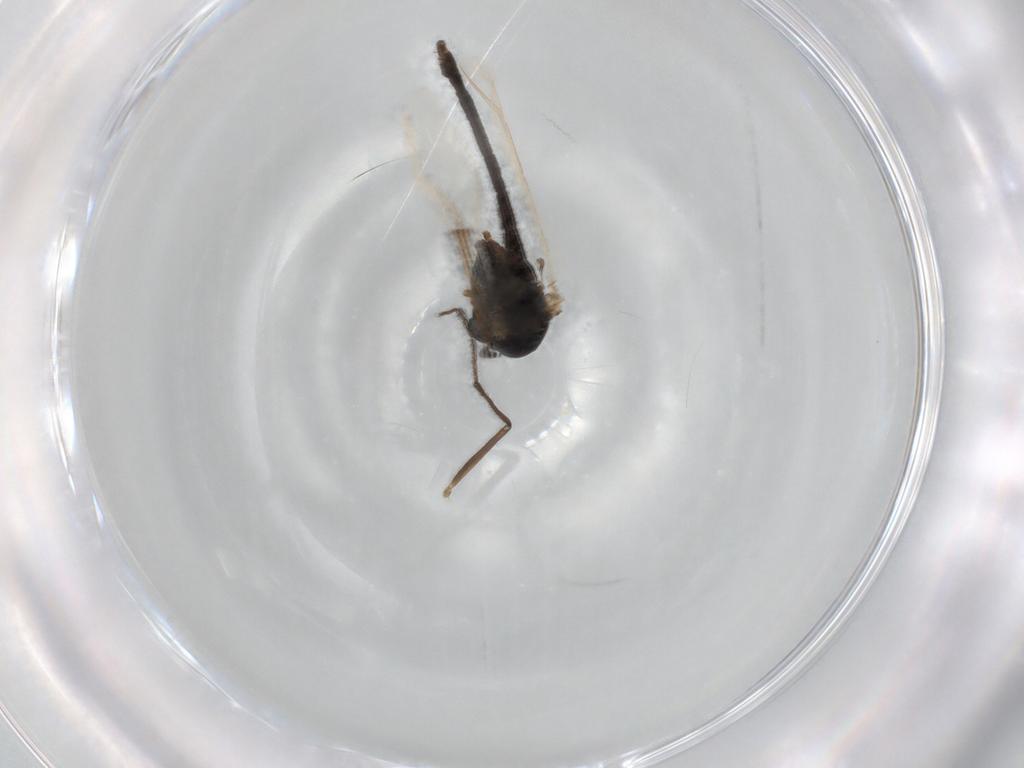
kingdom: Animalia
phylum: Arthropoda
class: Insecta
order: Diptera
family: Chironomidae
